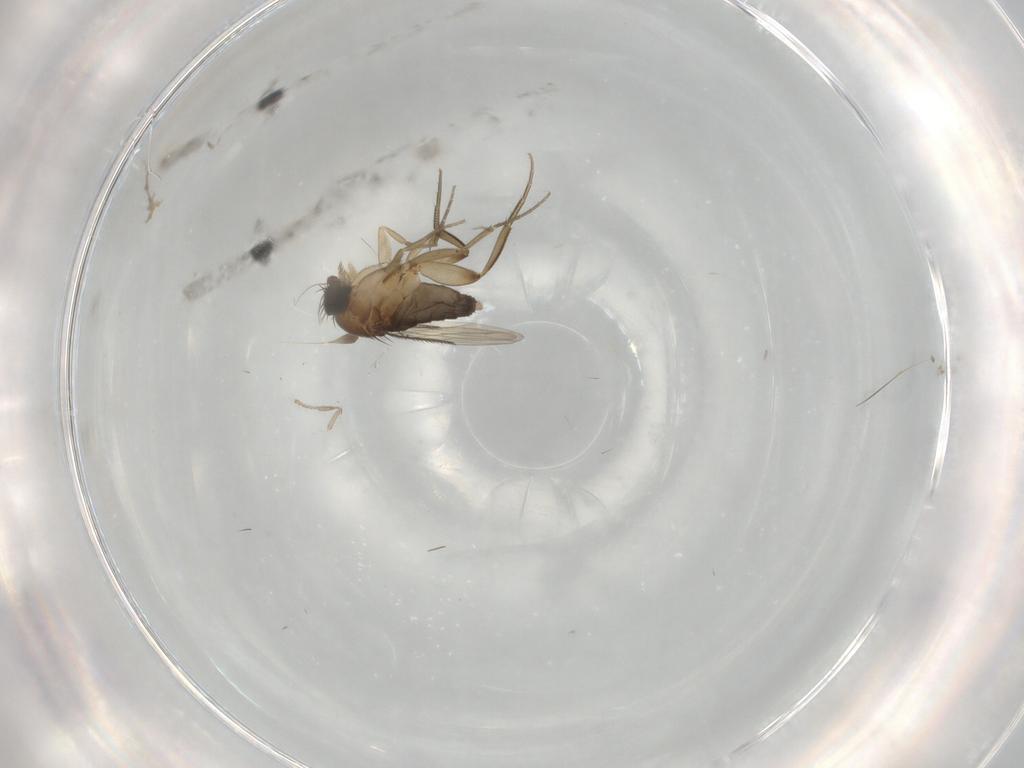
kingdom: Animalia
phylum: Arthropoda
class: Insecta
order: Diptera
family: Phoridae
